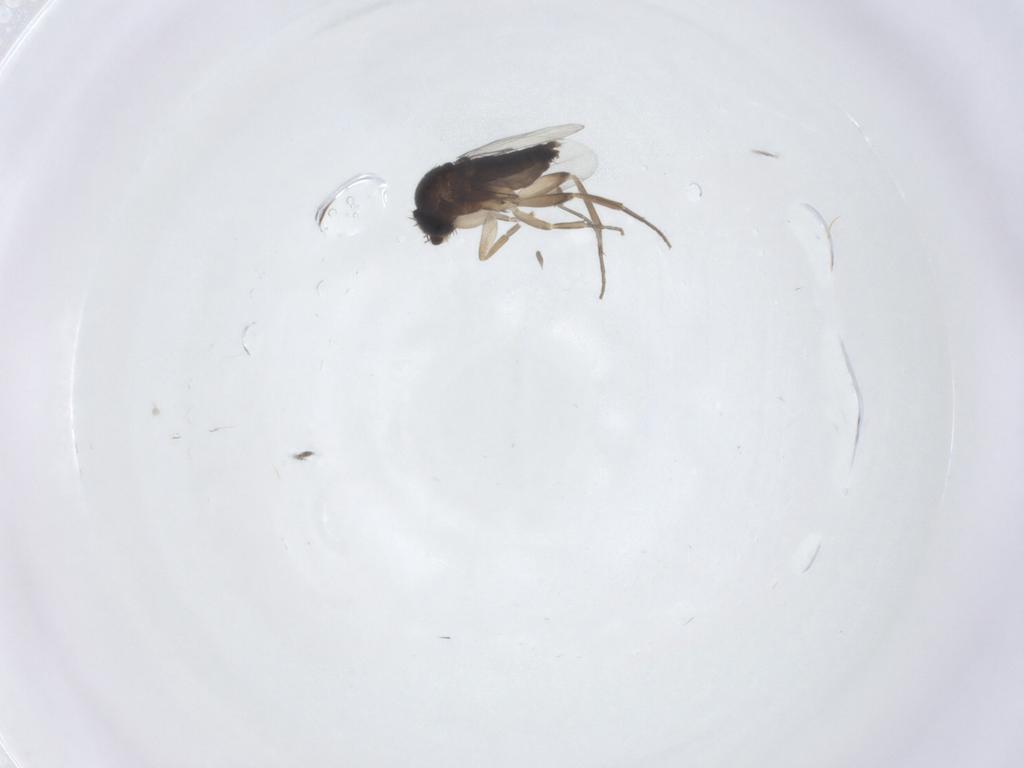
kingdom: Animalia
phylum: Arthropoda
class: Insecta
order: Diptera
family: Phoridae
